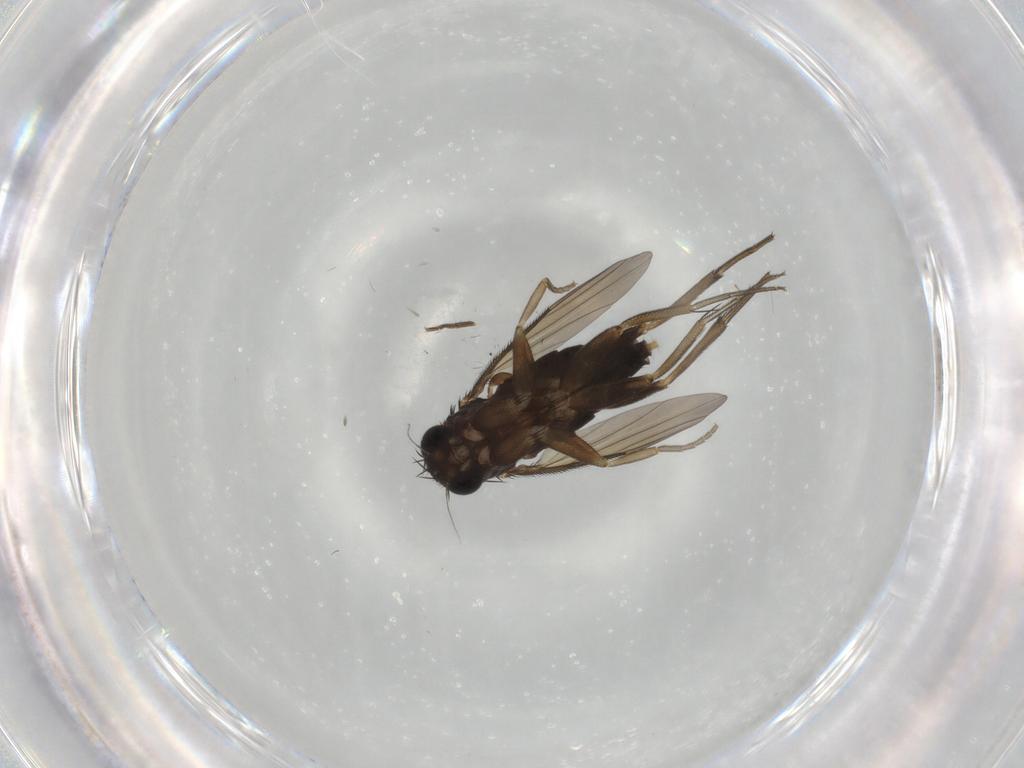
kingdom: Animalia
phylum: Arthropoda
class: Insecta
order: Diptera
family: Phoridae
